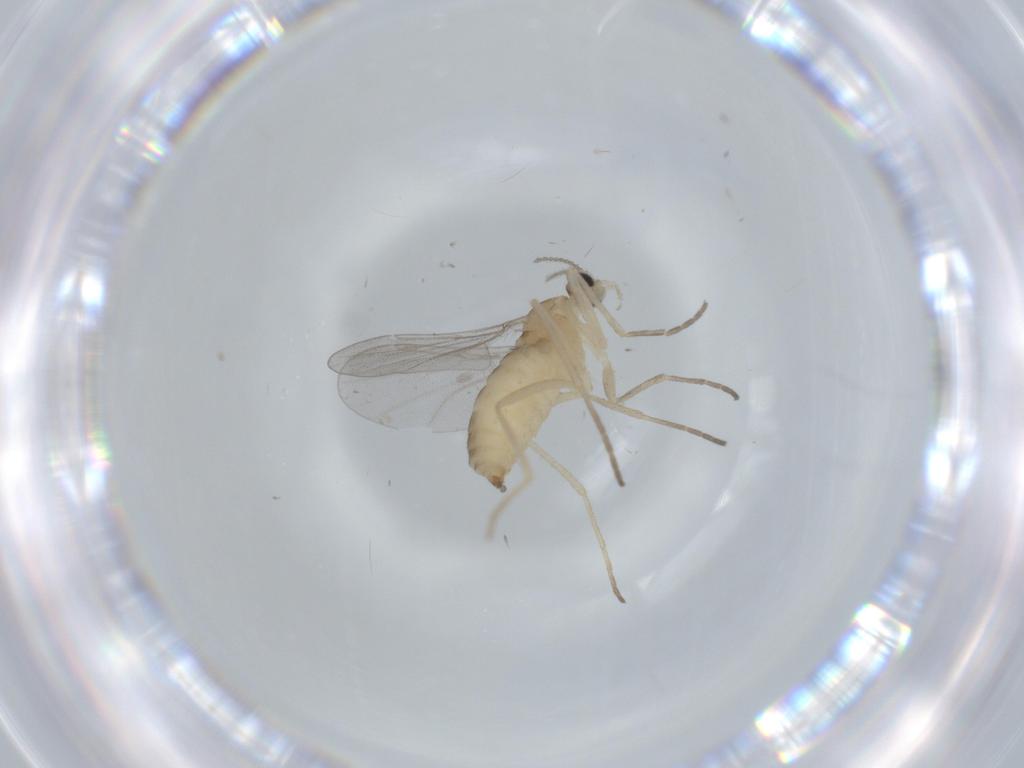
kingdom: Animalia
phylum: Arthropoda
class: Insecta
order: Diptera
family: Cecidomyiidae
